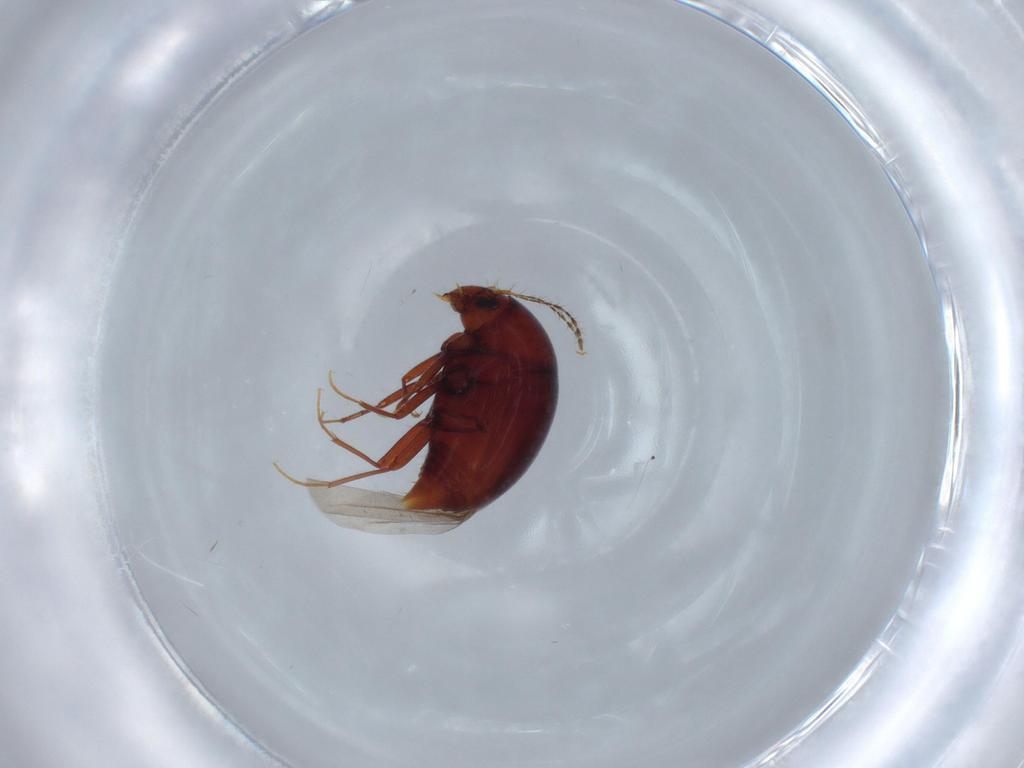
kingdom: Animalia
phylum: Arthropoda
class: Insecta
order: Coleoptera
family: Staphylinidae
